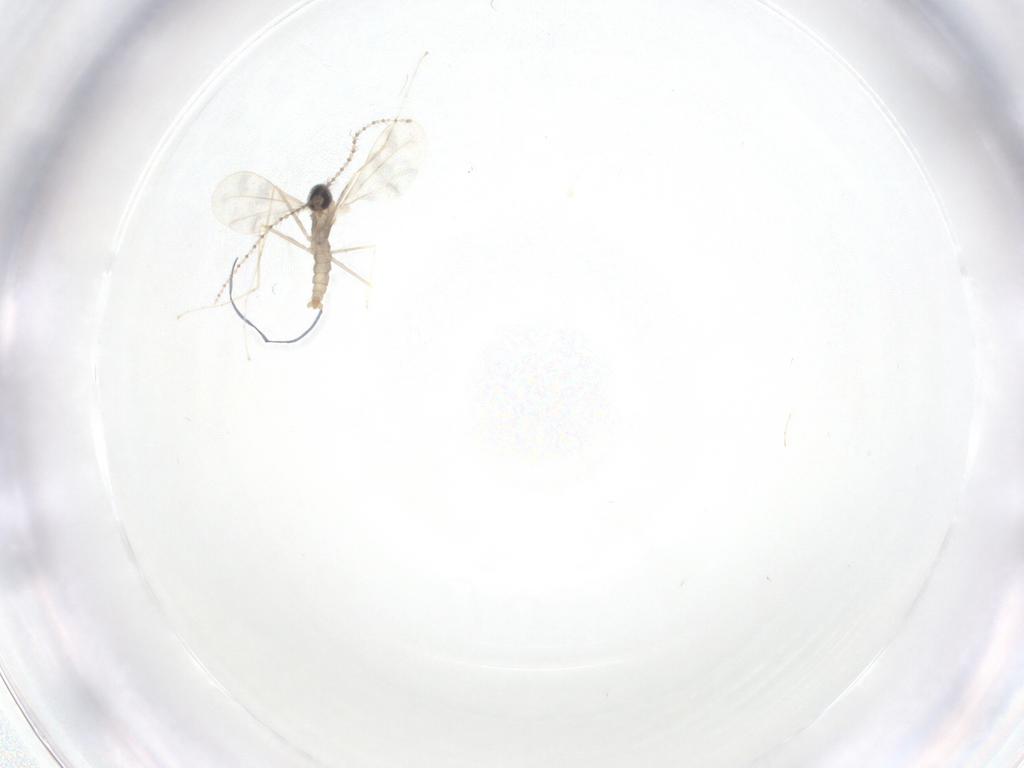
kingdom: Animalia
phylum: Arthropoda
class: Insecta
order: Diptera
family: Cecidomyiidae
